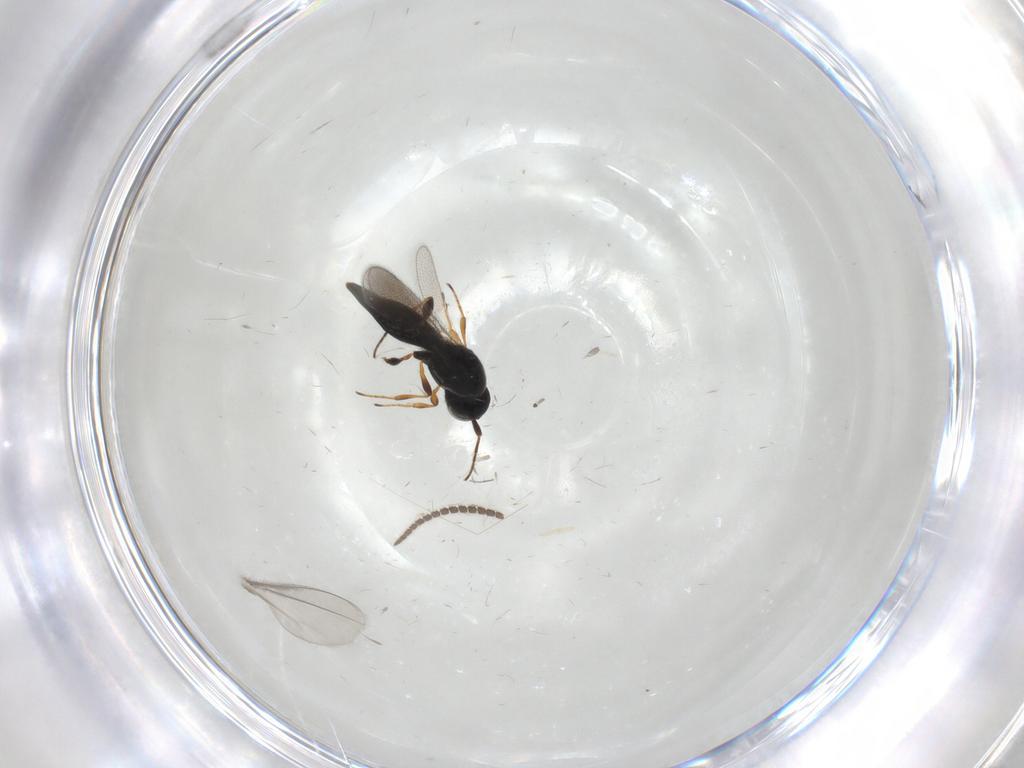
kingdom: Animalia
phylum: Arthropoda
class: Insecta
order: Hymenoptera
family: Platygastridae
